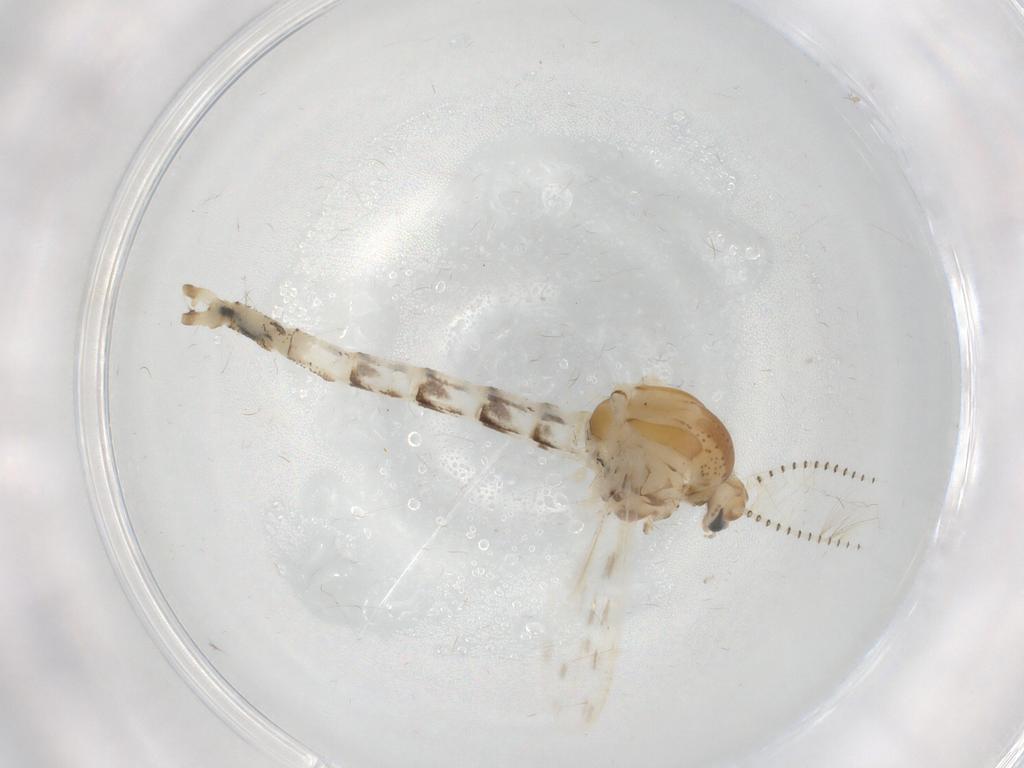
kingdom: Animalia
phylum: Arthropoda
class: Insecta
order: Diptera
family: Chaoboridae
